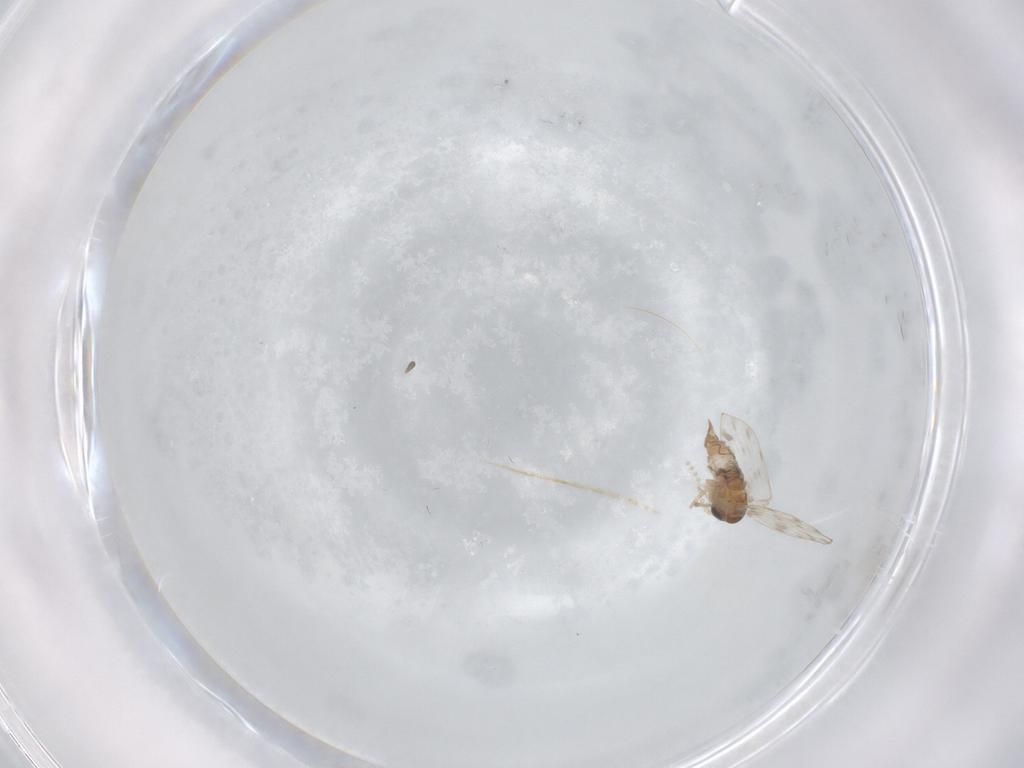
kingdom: Animalia
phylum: Arthropoda
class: Insecta
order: Diptera
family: Psychodidae
